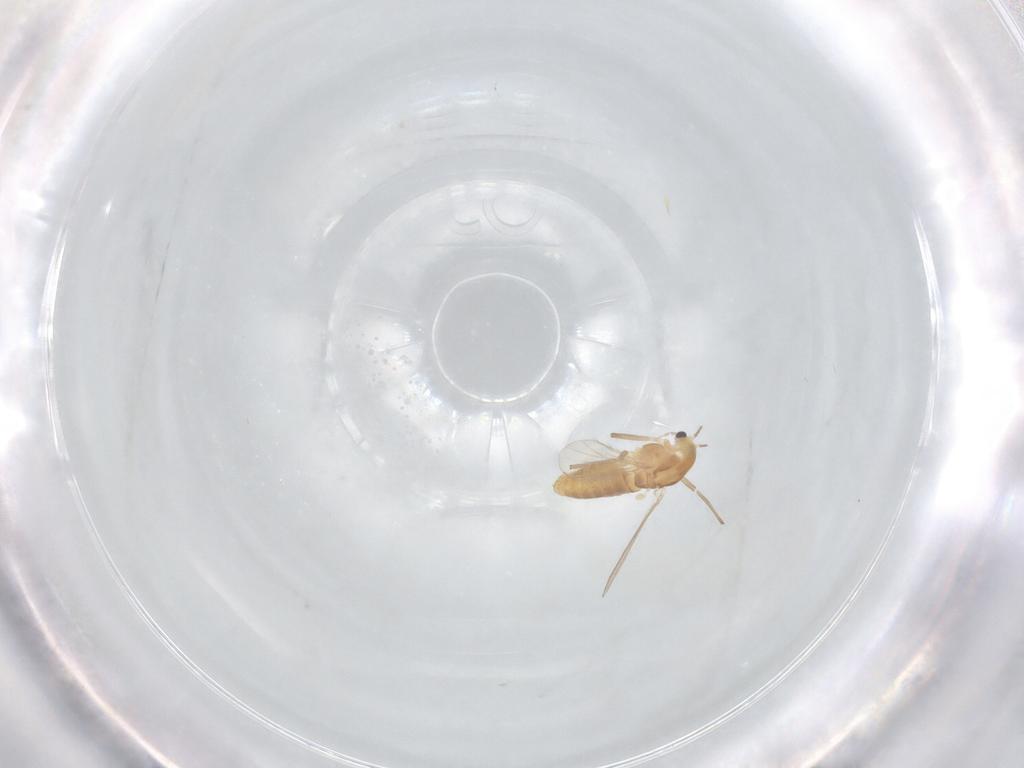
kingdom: Animalia
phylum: Arthropoda
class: Insecta
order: Diptera
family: Chironomidae
